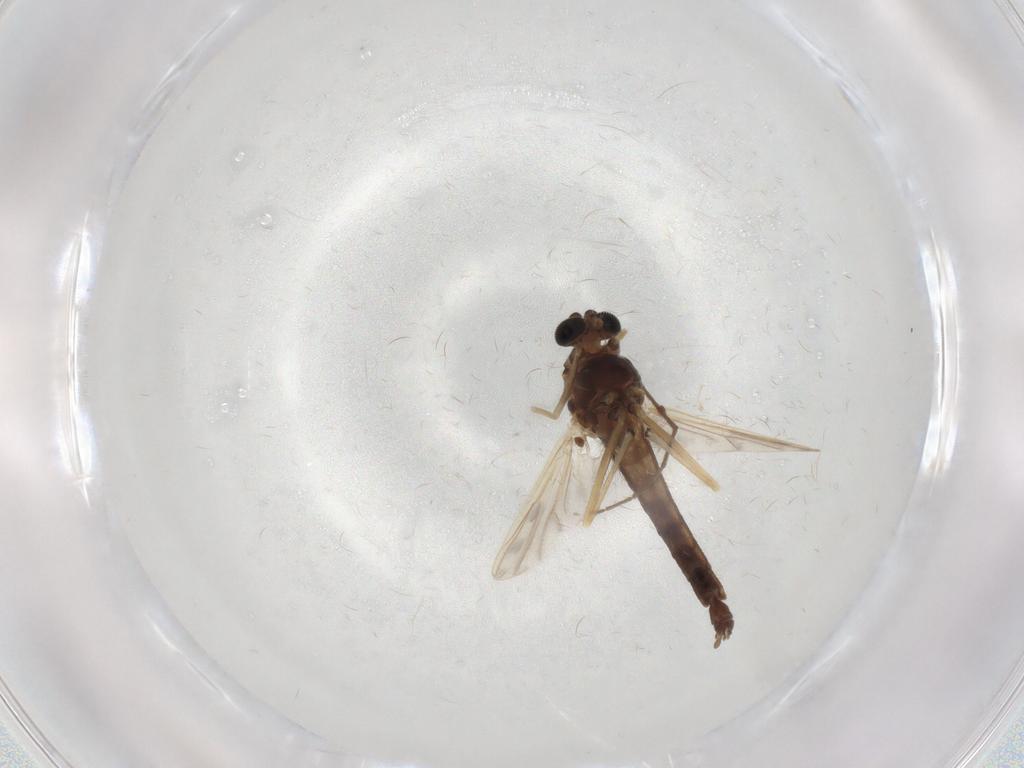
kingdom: Animalia
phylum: Arthropoda
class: Insecta
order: Diptera
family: Chironomidae
